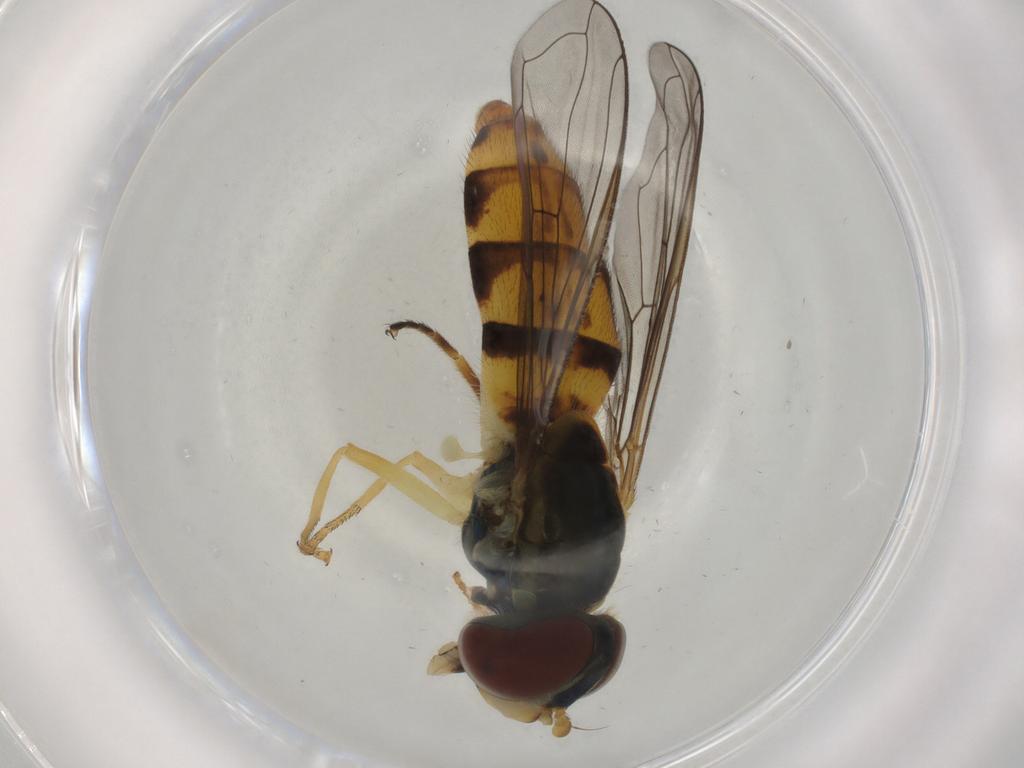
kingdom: Animalia
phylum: Arthropoda
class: Insecta
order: Diptera
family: Syrphidae
